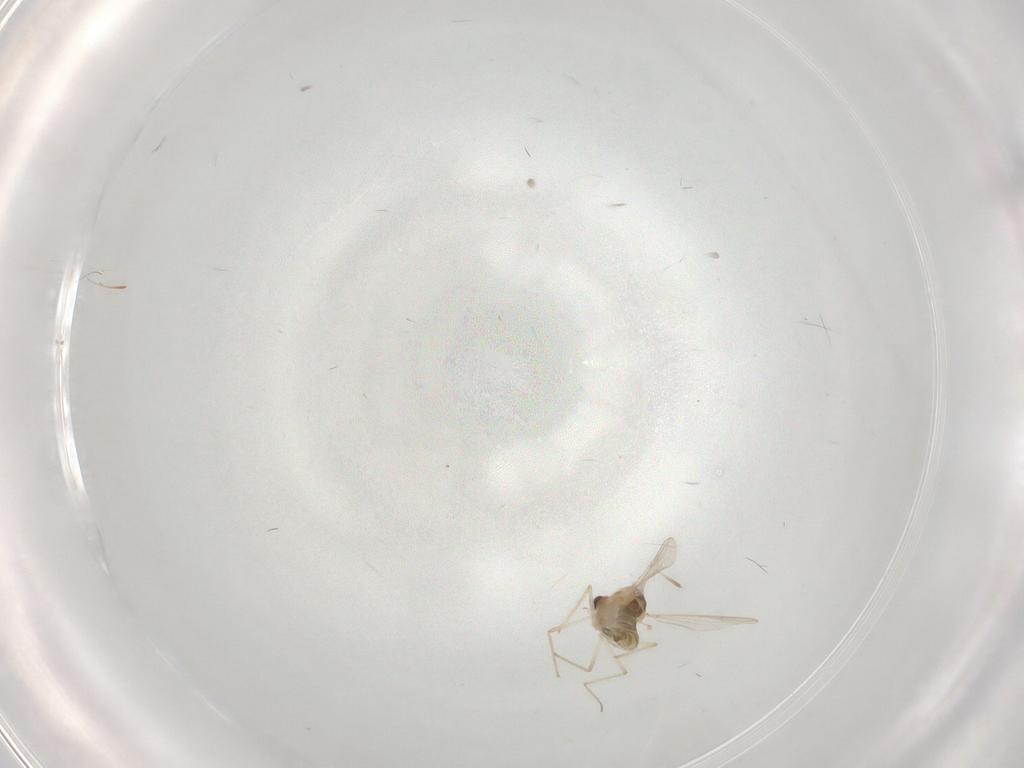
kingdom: Animalia
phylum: Arthropoda
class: Insecta
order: Diptera
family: Chironomidae
